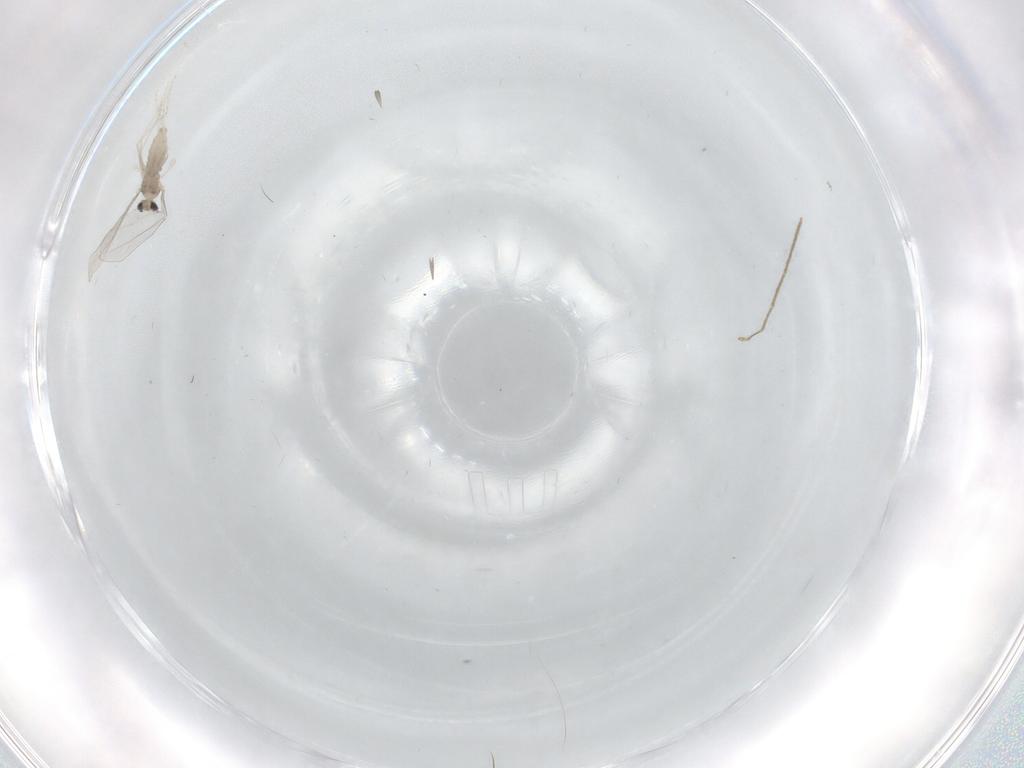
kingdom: Animalia
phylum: Arthropoda
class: Insecta
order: Diptera
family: Chironomidae
